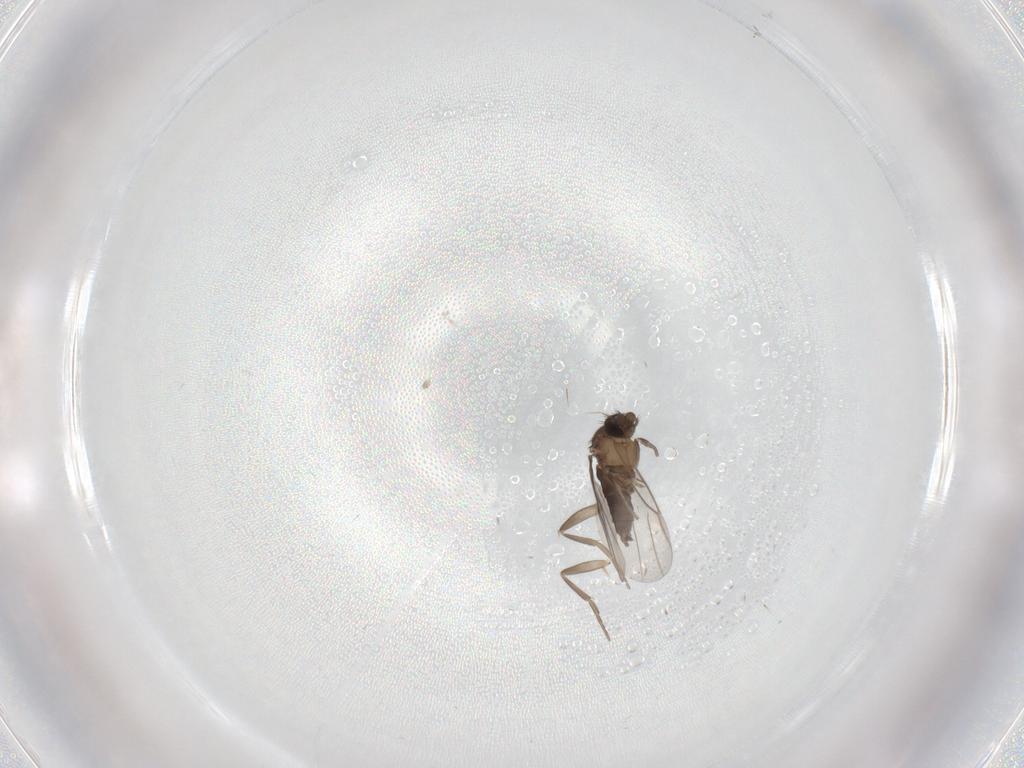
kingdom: Animalia
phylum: Arthropoda
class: Insecta
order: Diptera
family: Phoridae
